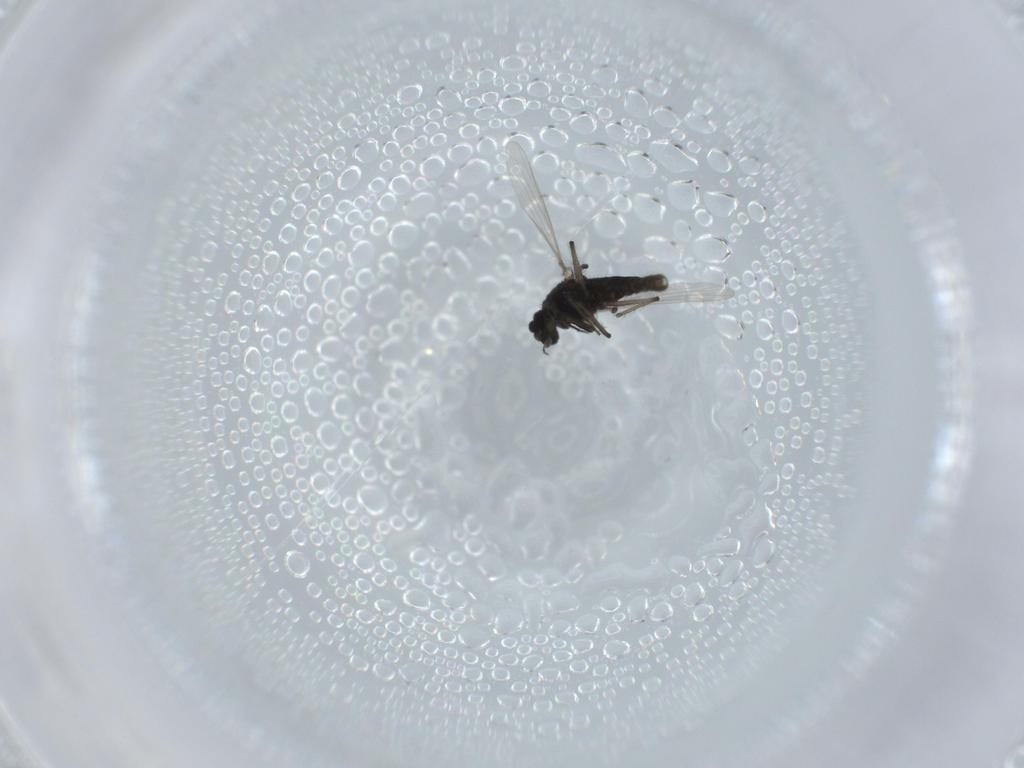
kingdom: Animalia
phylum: Arthropoda
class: Insecta
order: Diptera
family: Chironomidae
